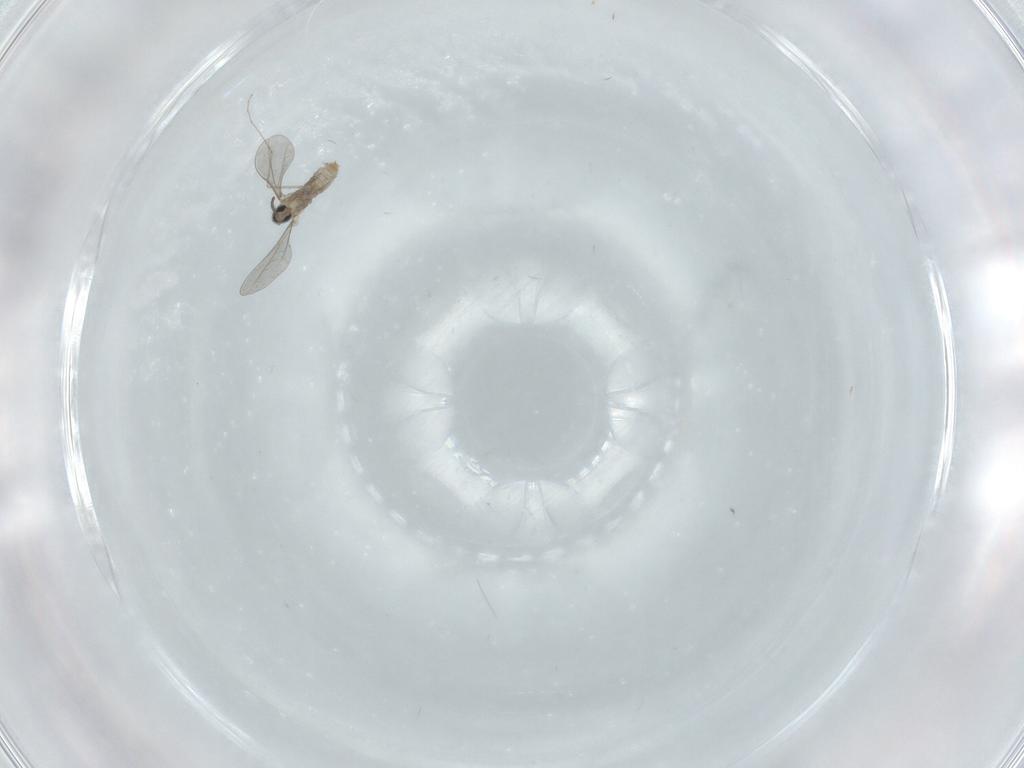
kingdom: Animalia
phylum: Arthropoda
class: Insecta
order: Diptera
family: Cecidomyiidae
